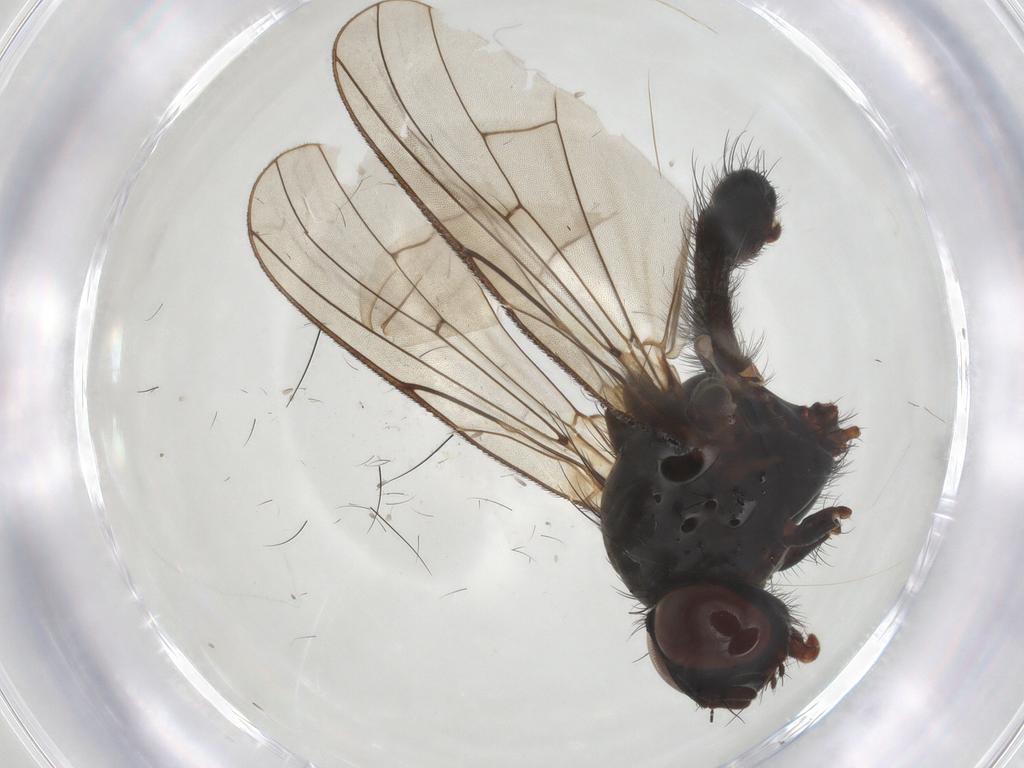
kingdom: Animalia
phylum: Arthropoda
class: Insecta
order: Diptera
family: Anthomyiidae
